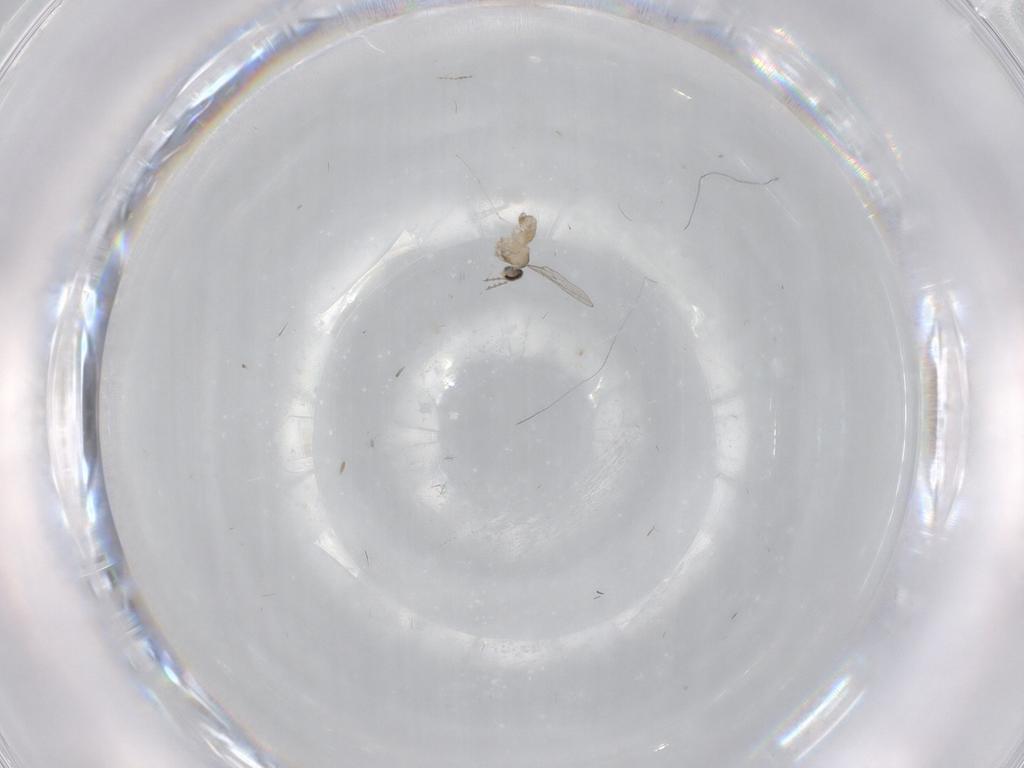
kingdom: Animalia
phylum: Arthropoda
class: Insecta
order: Diptera
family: Cecidomyiidae
